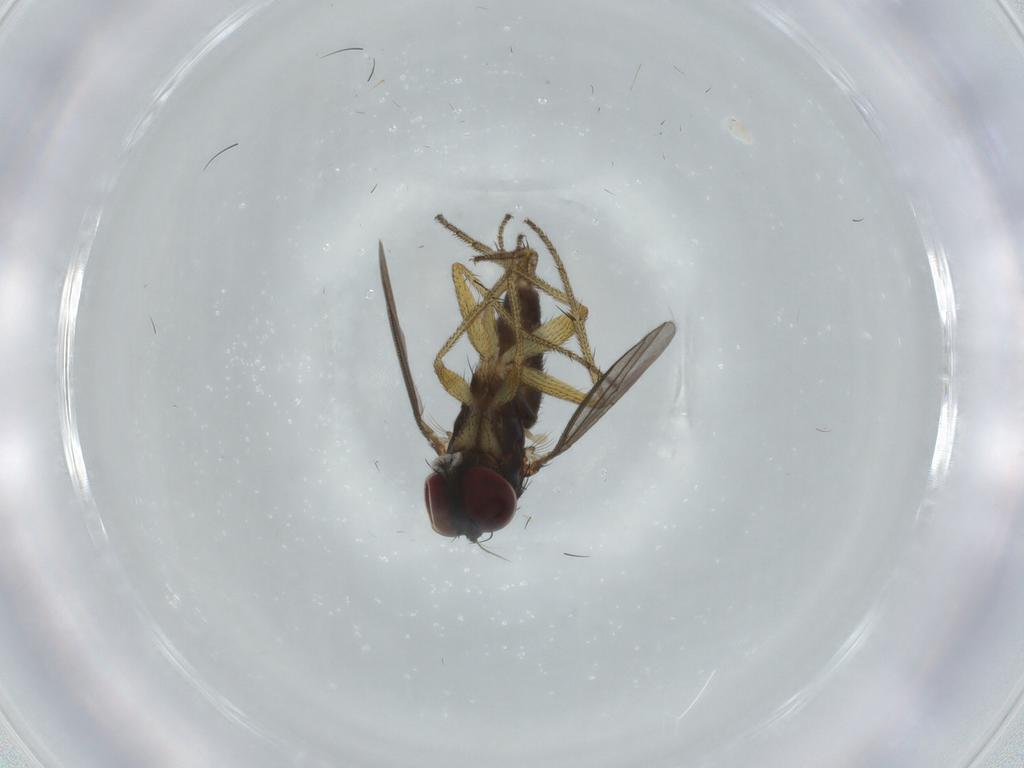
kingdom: Animalia
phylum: Arthropoda
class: Insecta
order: Diptera
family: Dolichopodidae
